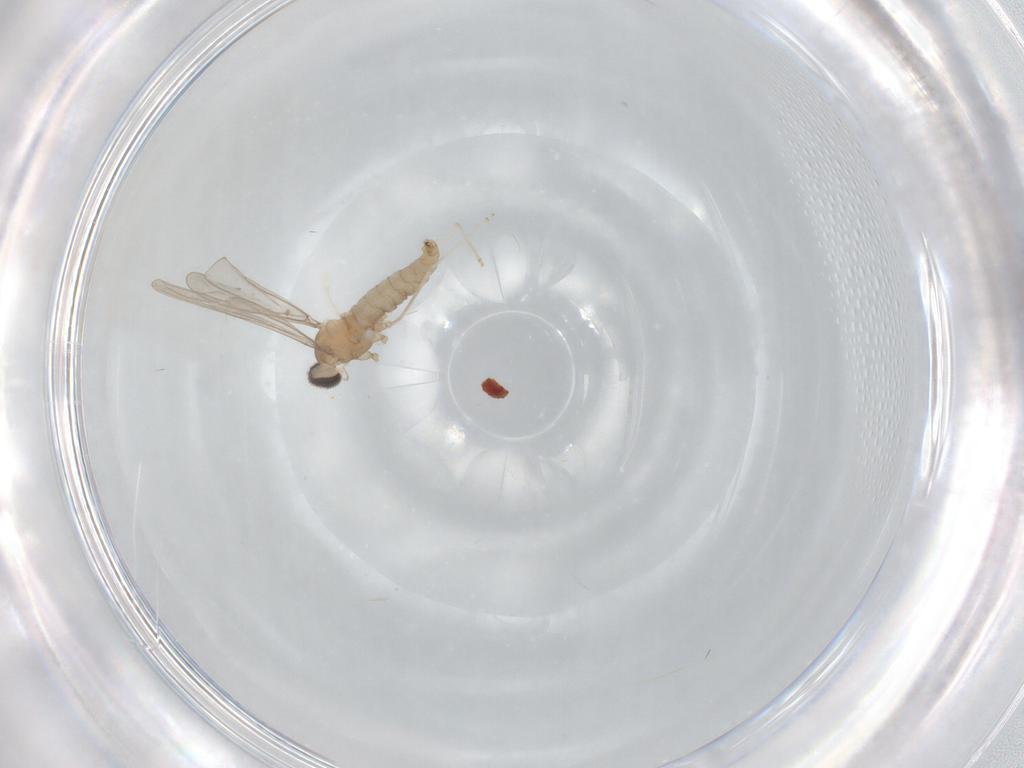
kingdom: Animalia
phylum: Arthropoda
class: Insecta
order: Diptera
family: Cecidomyiidae
